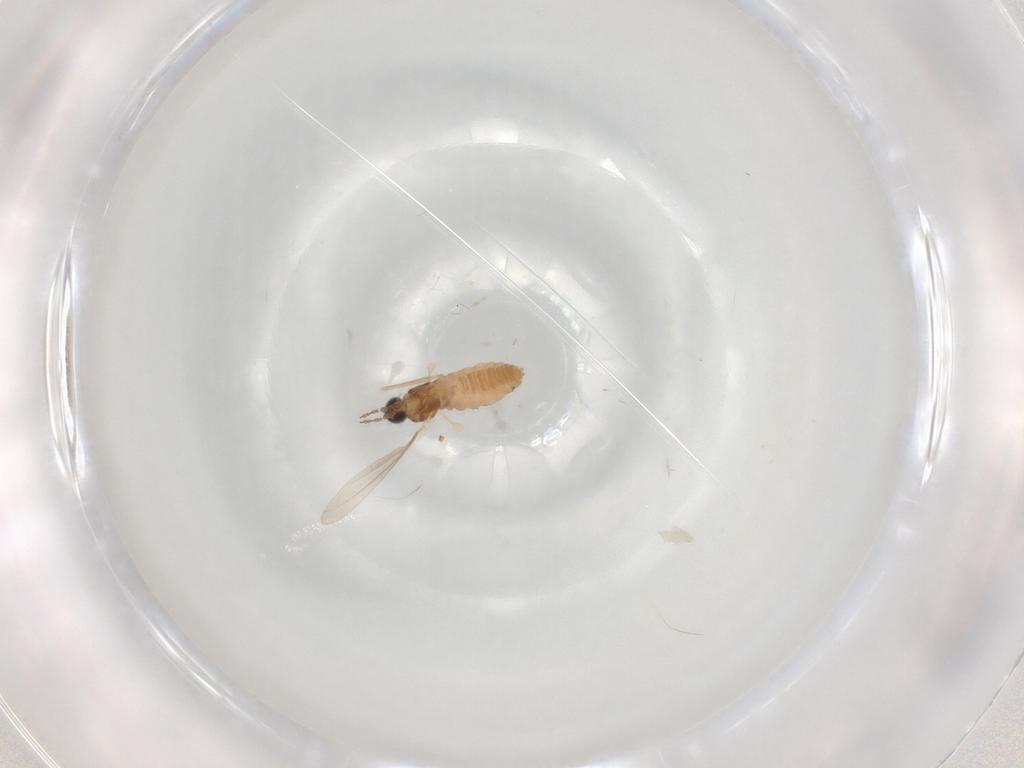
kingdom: Animalia
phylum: Arthropoda
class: Insecta
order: Diptera
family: Cecidomyiidae
